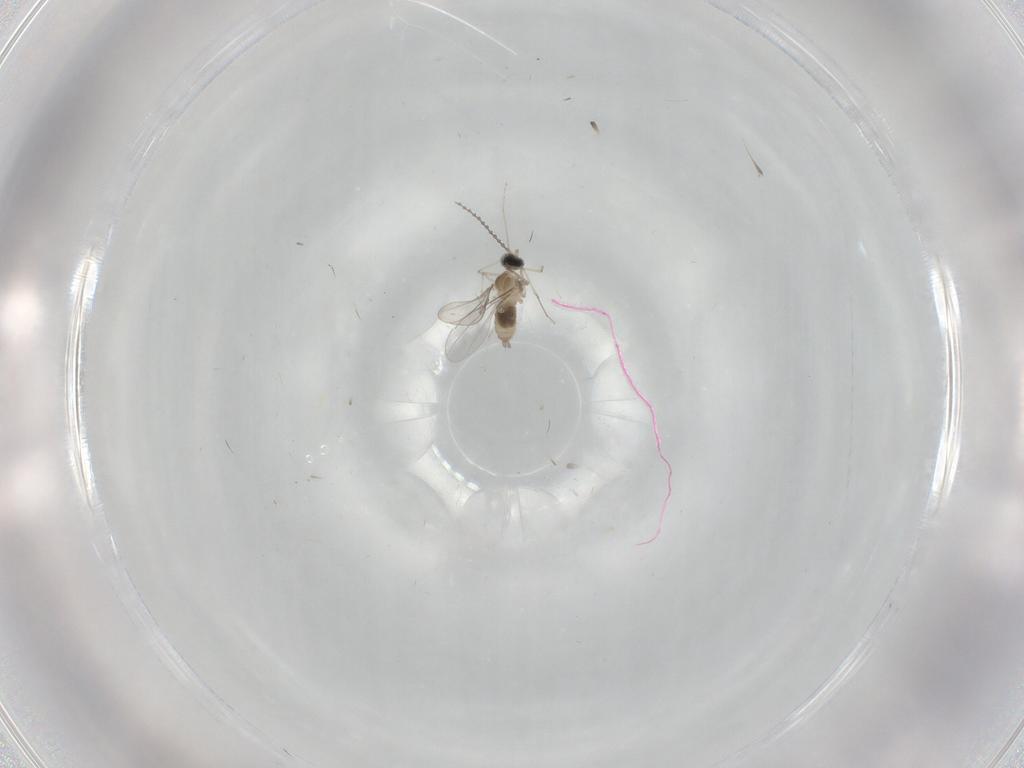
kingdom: Animalia
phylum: Arthropoda
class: Insecta
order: Diptera
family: Cecidomyiidae
